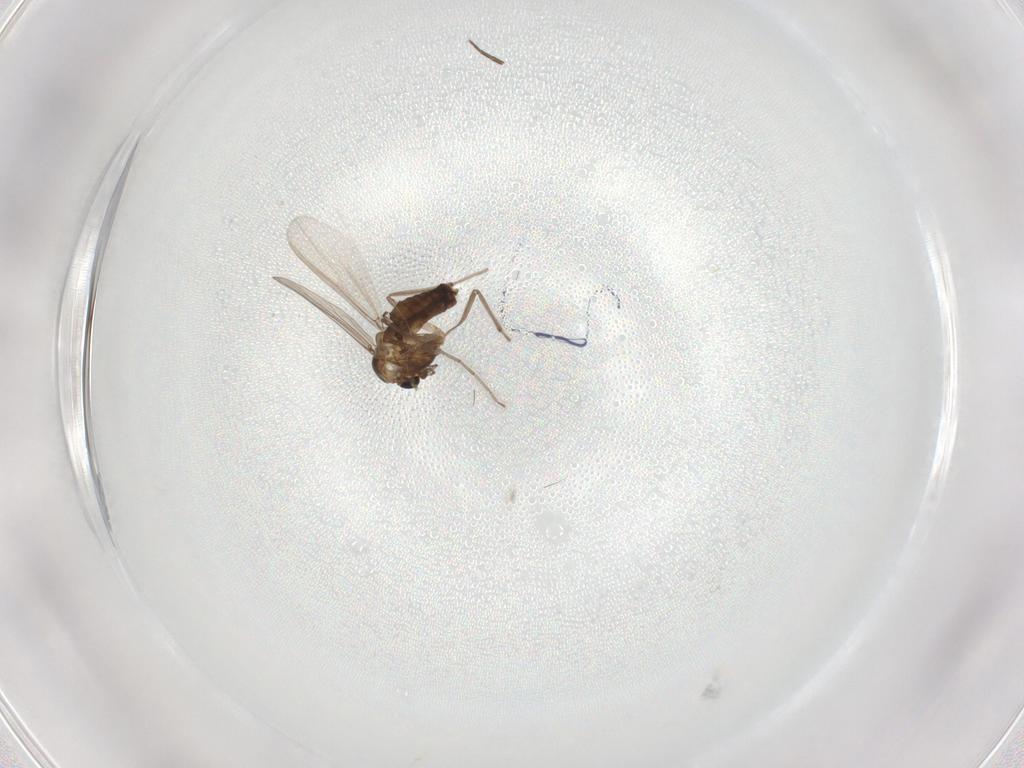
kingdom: Animalia
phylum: Arthropoda
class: Insecta
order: Diptera
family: Chironomidae
